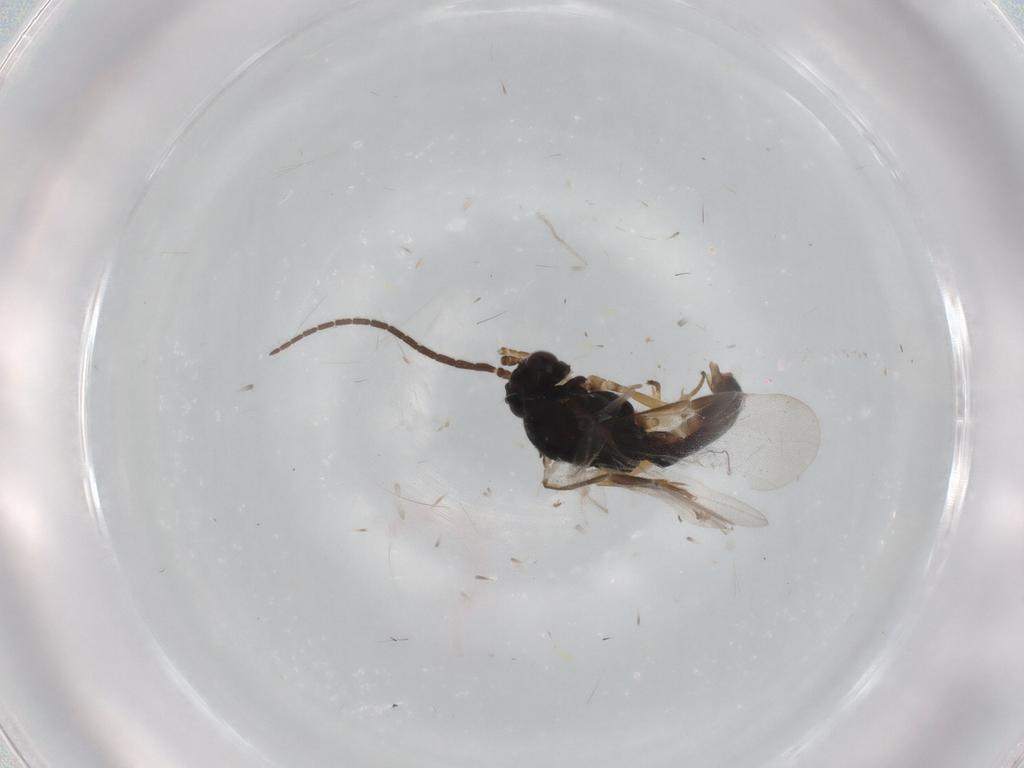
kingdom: Animalia
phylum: Arthropoda
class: Insecta
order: Hymenoptera
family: Braconidae
